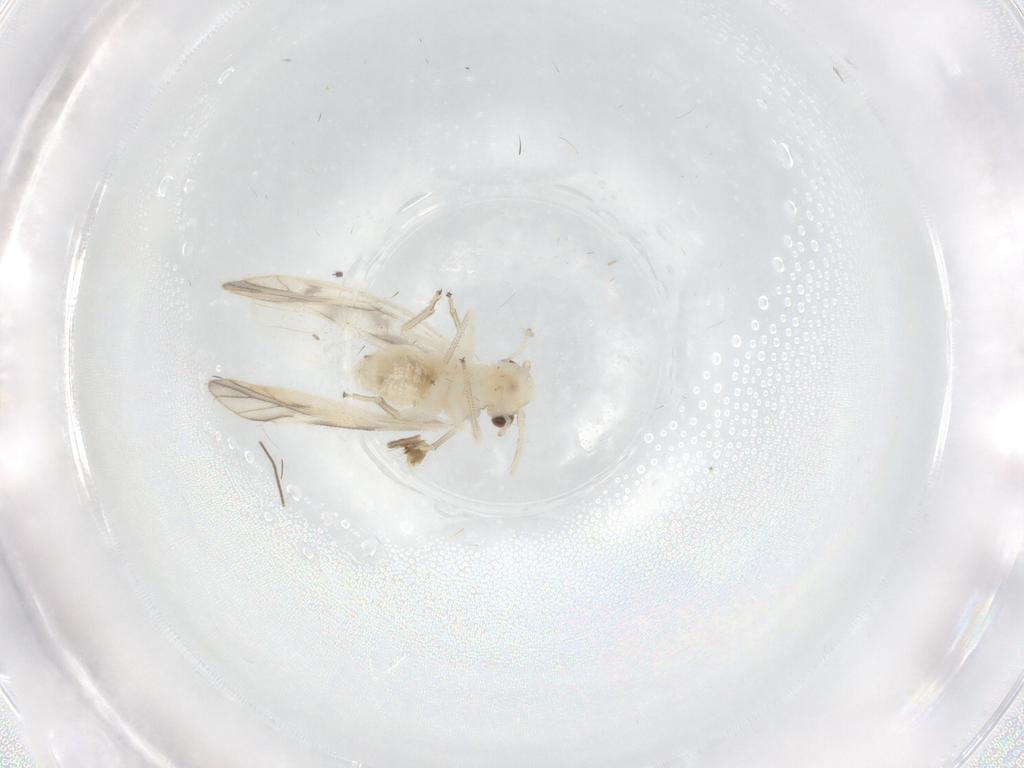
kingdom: Animalia
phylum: Arthropoda
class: Insecta
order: Psocodea
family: Caeciliusidae
